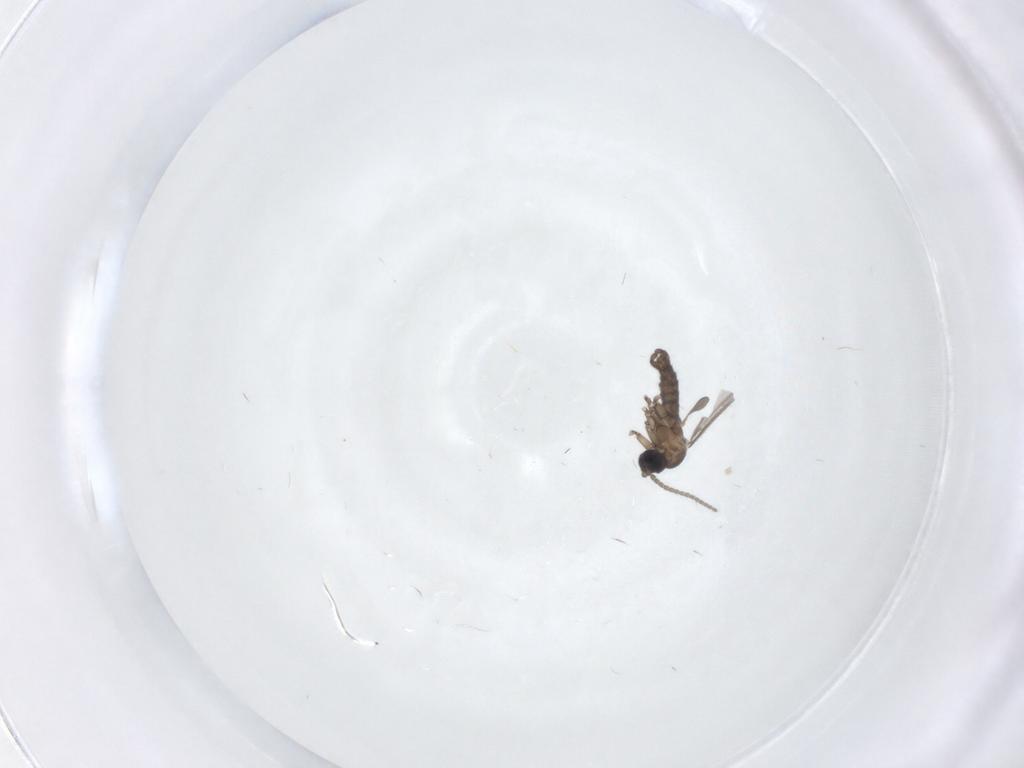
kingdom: Animalia
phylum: Arthropoda
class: Insecta
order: Diptera
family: Sciaridae
